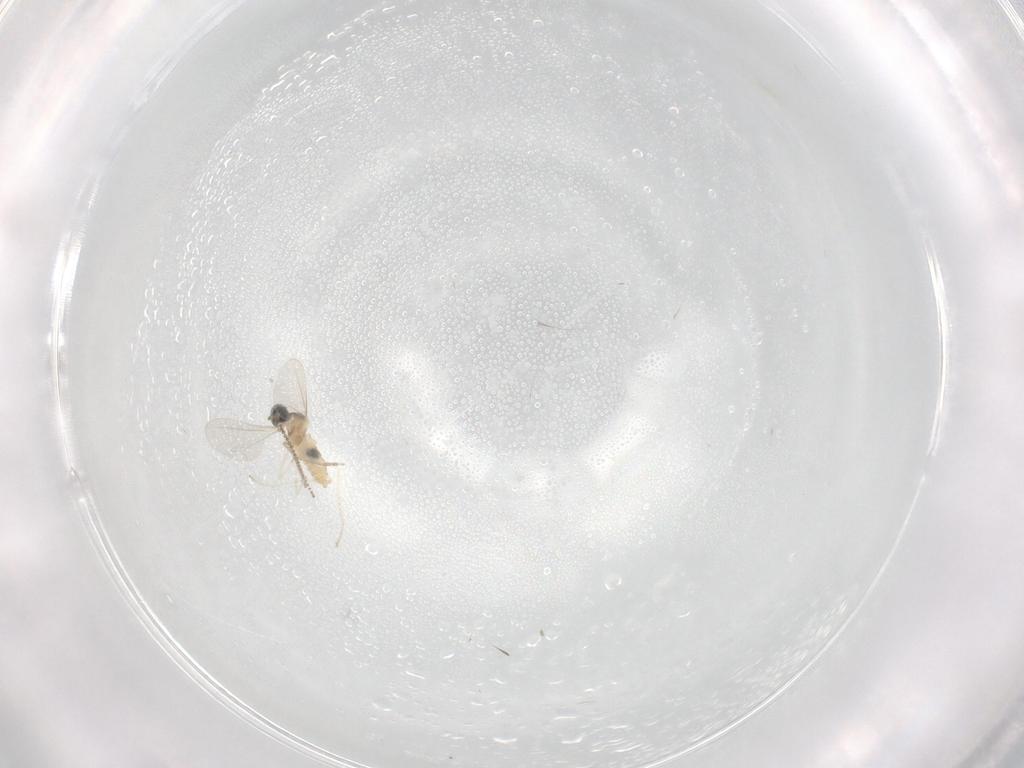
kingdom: Animalia
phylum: Arthropoda
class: Insecta
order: Diptera
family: Cecidomyiidae
